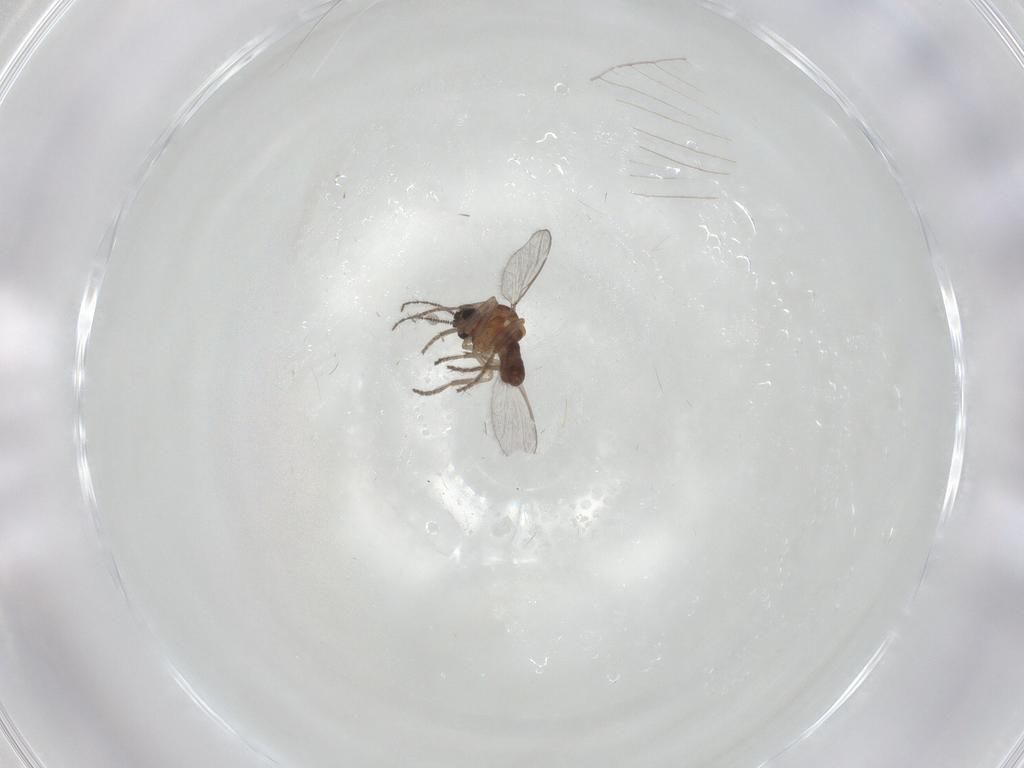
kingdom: Animalia
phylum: Arthropoda
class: Insecta
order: Diptera
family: Ceratopogonidae
